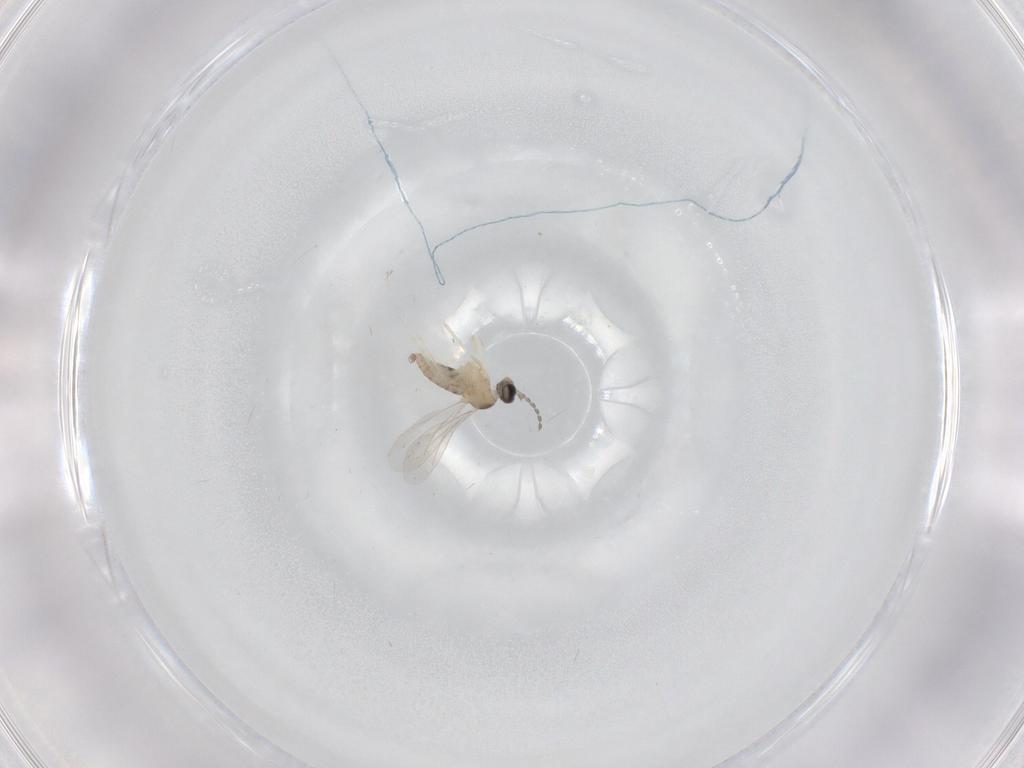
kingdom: Animalia
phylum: Arthropoda
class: Insecta
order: Diptera
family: Cecidomyiidae
